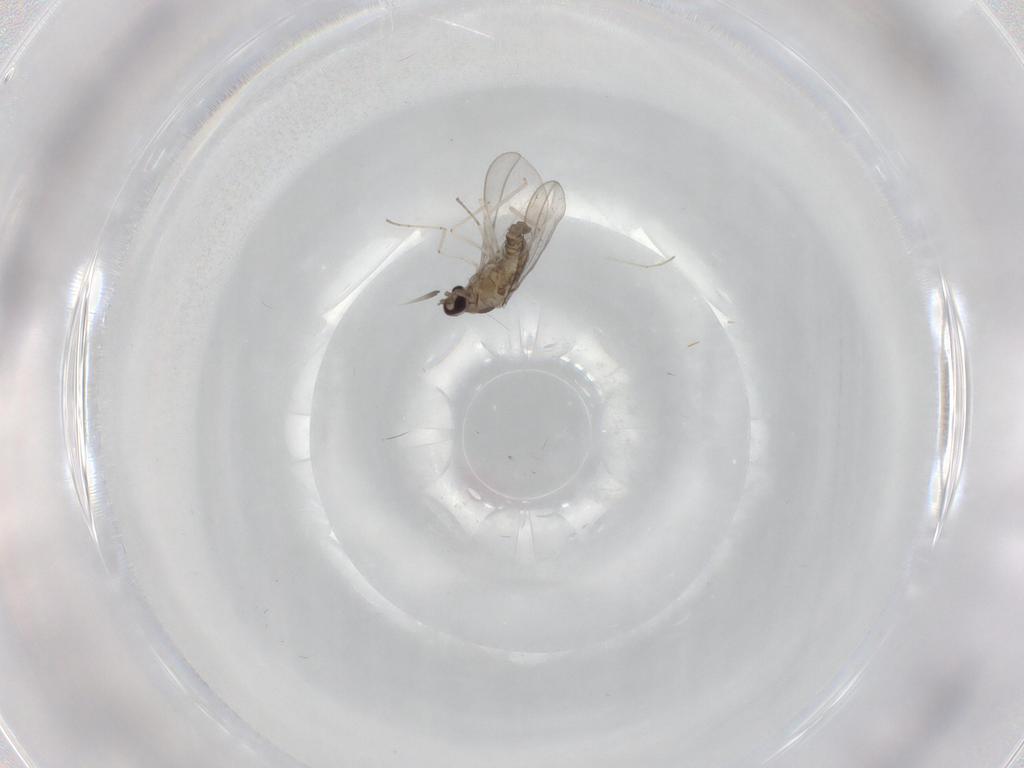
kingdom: Animalia
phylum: Arthropoda
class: Insecta
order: Diptera
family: Cecidomyiidae
